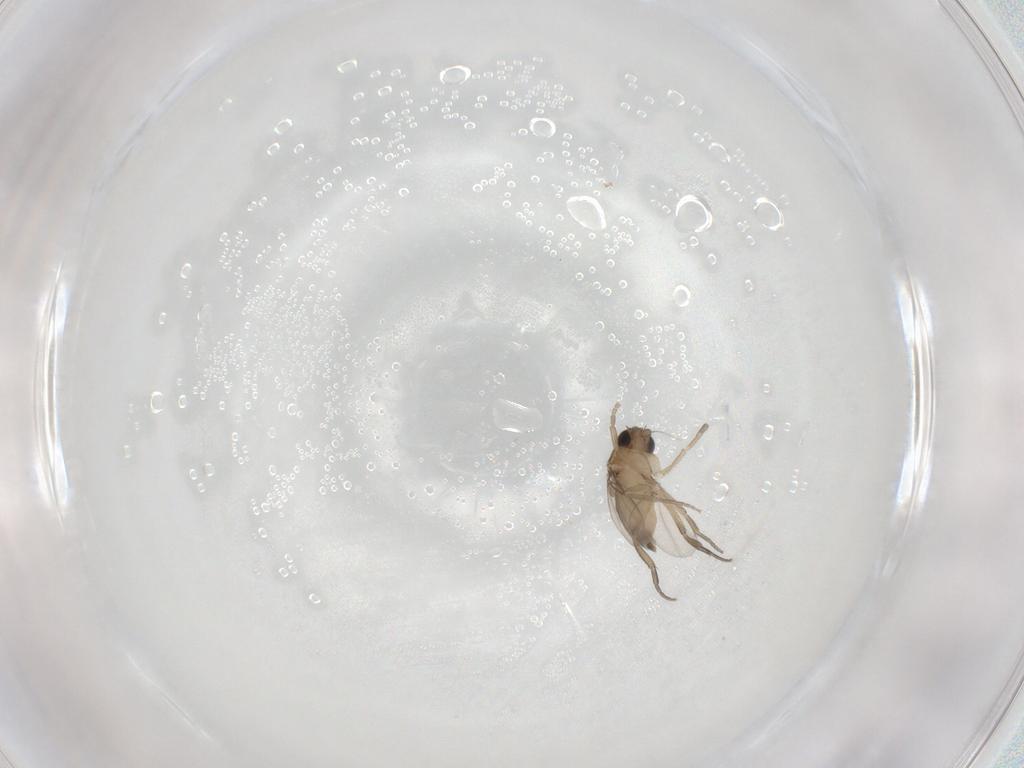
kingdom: Animalia
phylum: Arthropoda
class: Insecta
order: Diptera
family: Phoridae
